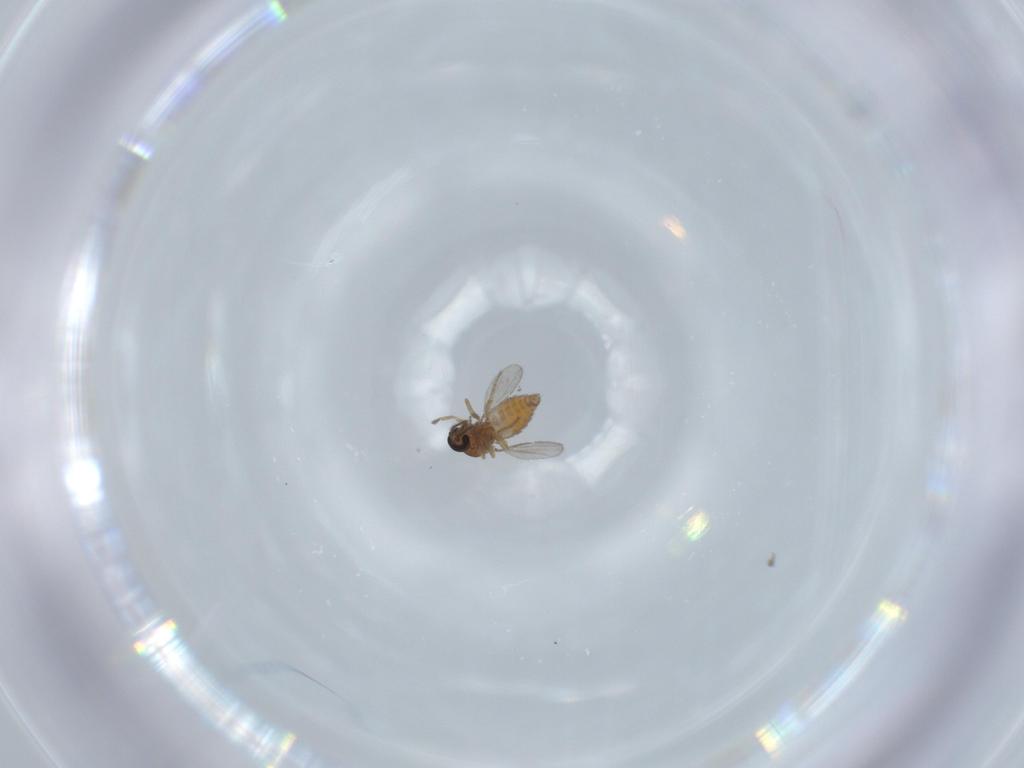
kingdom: Animalia
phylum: Arthropoda
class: Insecta
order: Diptera
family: Ceratopogonidae
